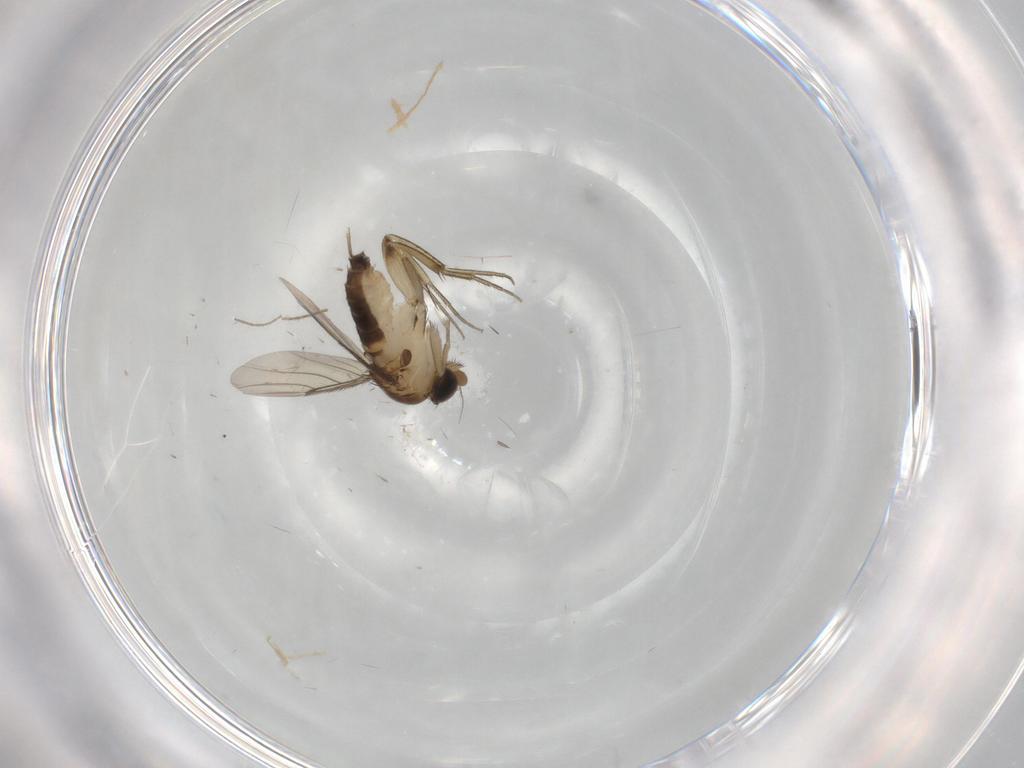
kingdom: Animalia
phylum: Arthropoda
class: Insecta
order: Diptera
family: Phoridae
